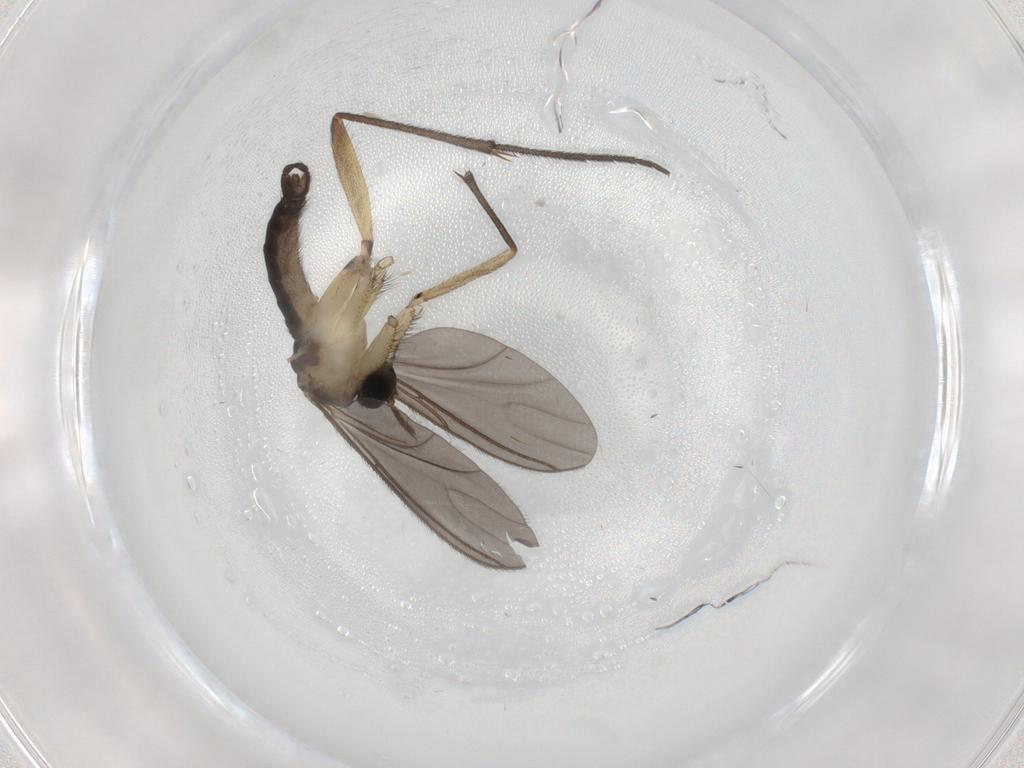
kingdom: Animalia
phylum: Arthropoda
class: Insecta
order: Diptera
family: Sciaridae
